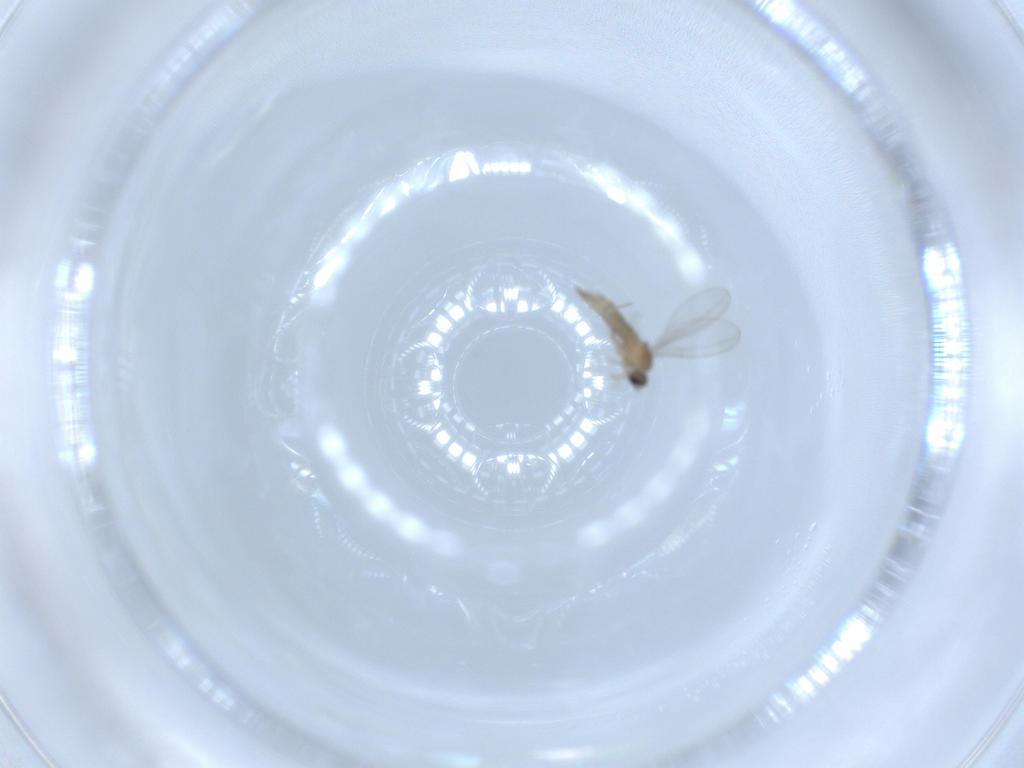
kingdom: Animalia
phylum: Arthropoda
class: Insecta
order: Diptera
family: Cecidomyiidae
